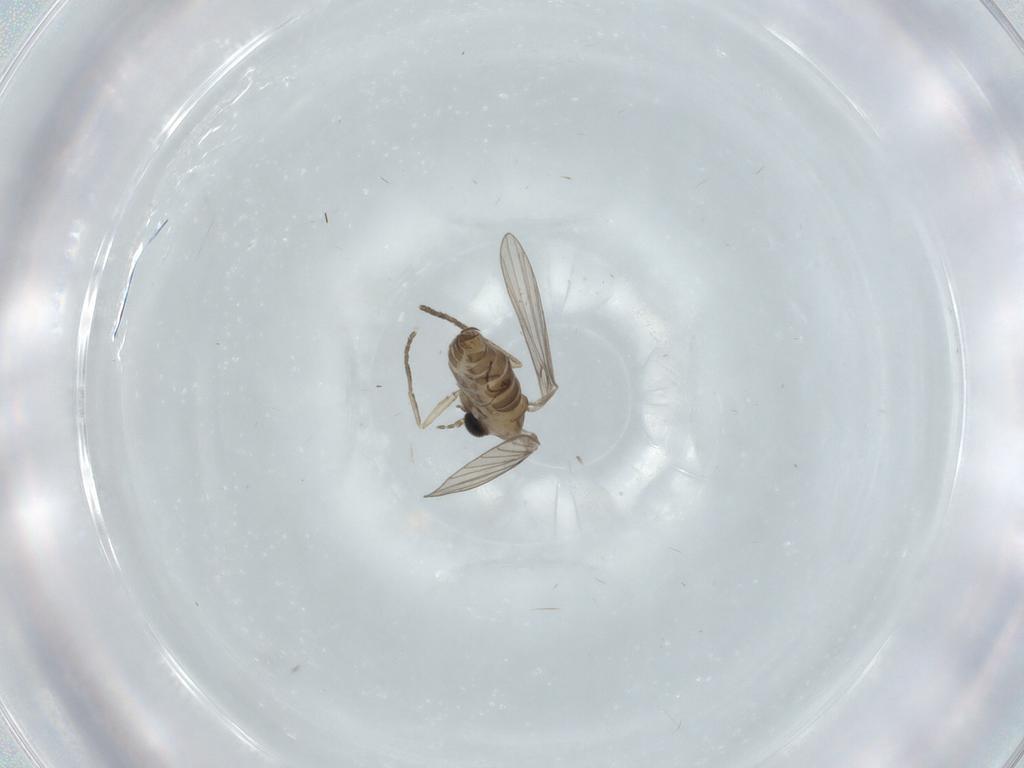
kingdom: Animalia
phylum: Arthropoda
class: Insecta
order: Diptera
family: Psychodidae
